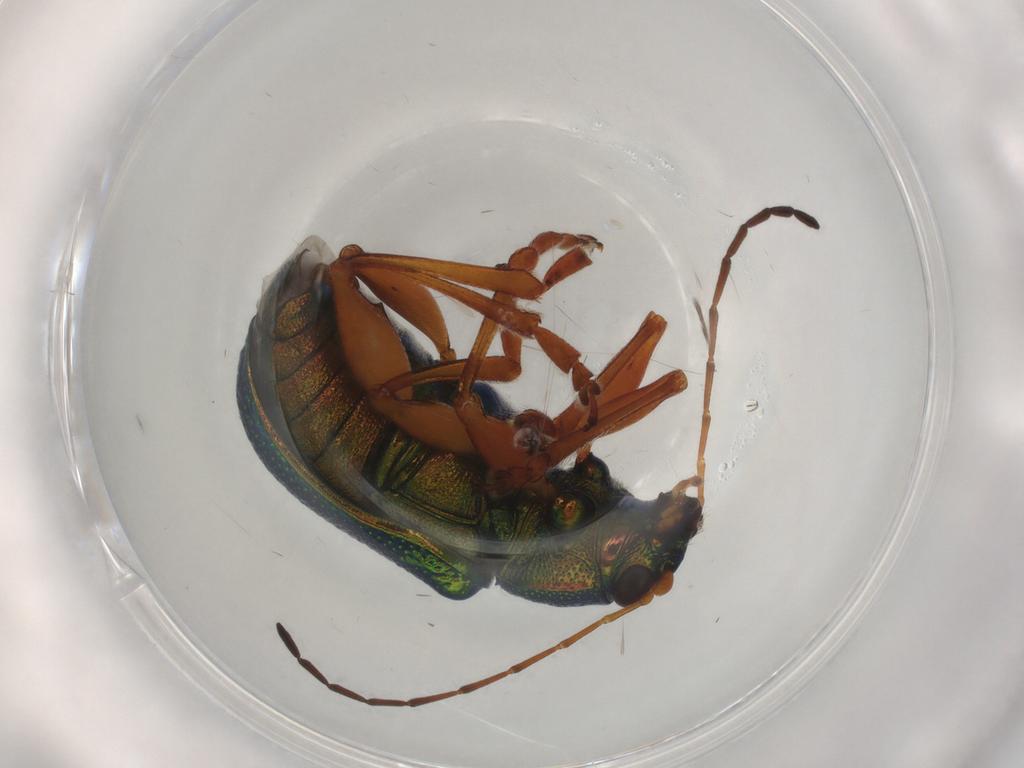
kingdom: Animalia
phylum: Arthropoda
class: Insecta
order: Coleoptera
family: Chrysomelidae
